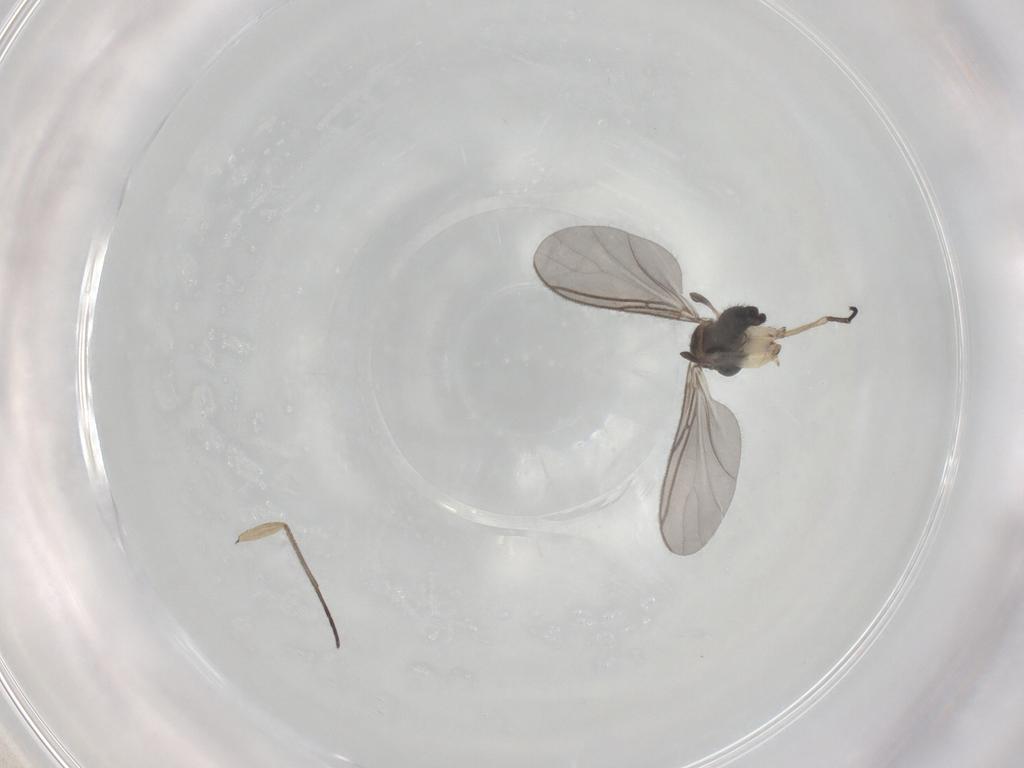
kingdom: Animalia
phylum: Arthropoda
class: Insecta
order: Diptera
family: Sciaridae
